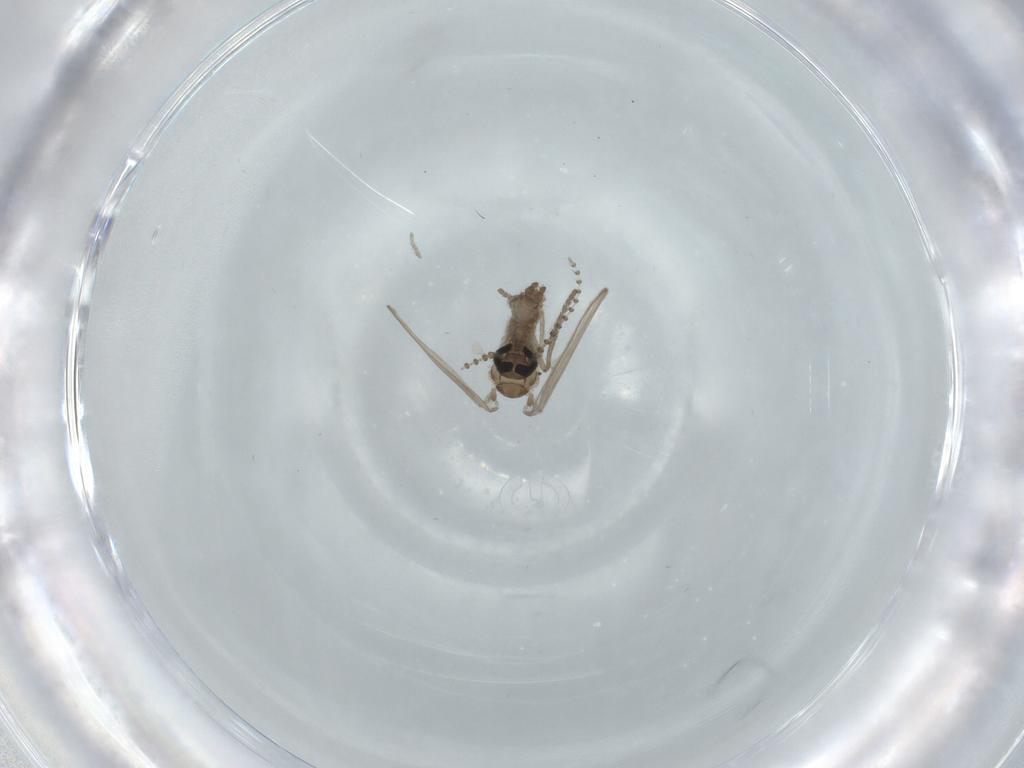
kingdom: Animalia
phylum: Arthropoda
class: Insecta
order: Diptera
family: Psychodidae
